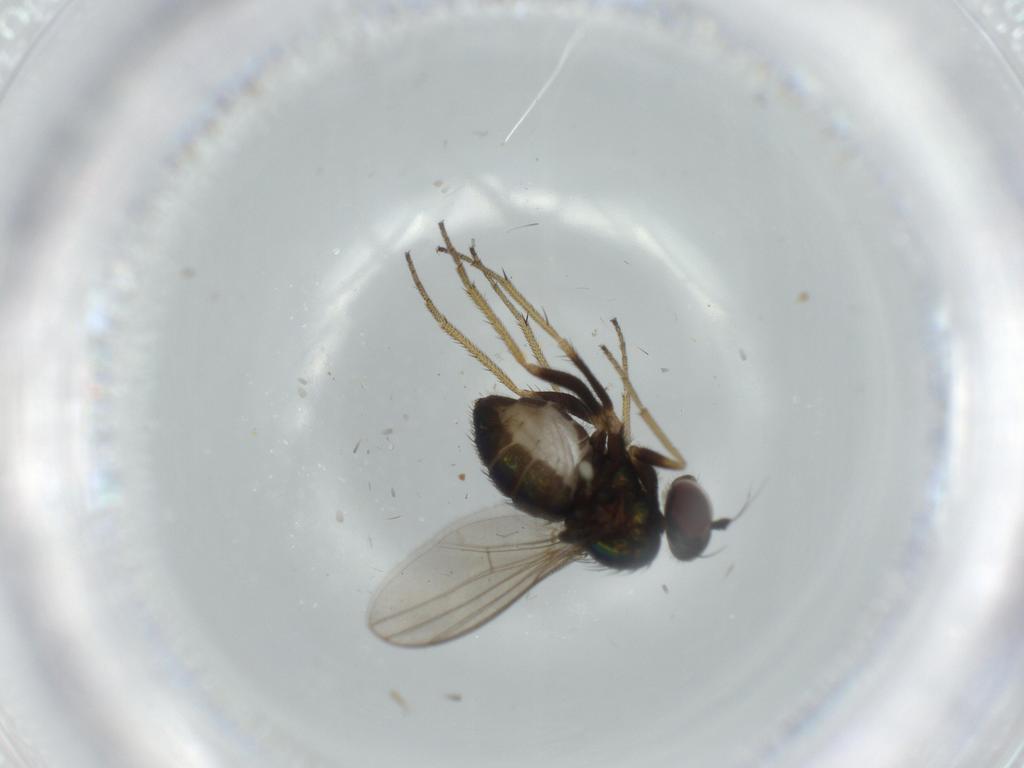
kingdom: Animalia
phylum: Arthropoda
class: Insecta
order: Diptera
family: Dolichopodidae
